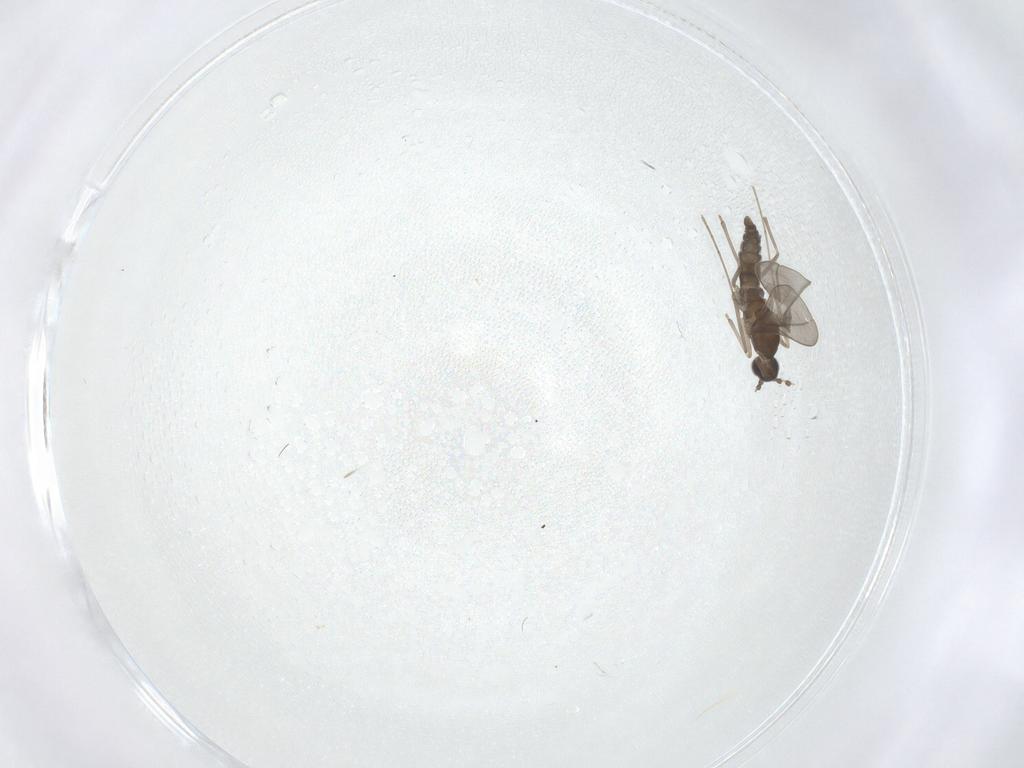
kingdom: Animalia
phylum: Arthropoda
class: Insecta
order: Diptera
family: Cecidomyiidae
